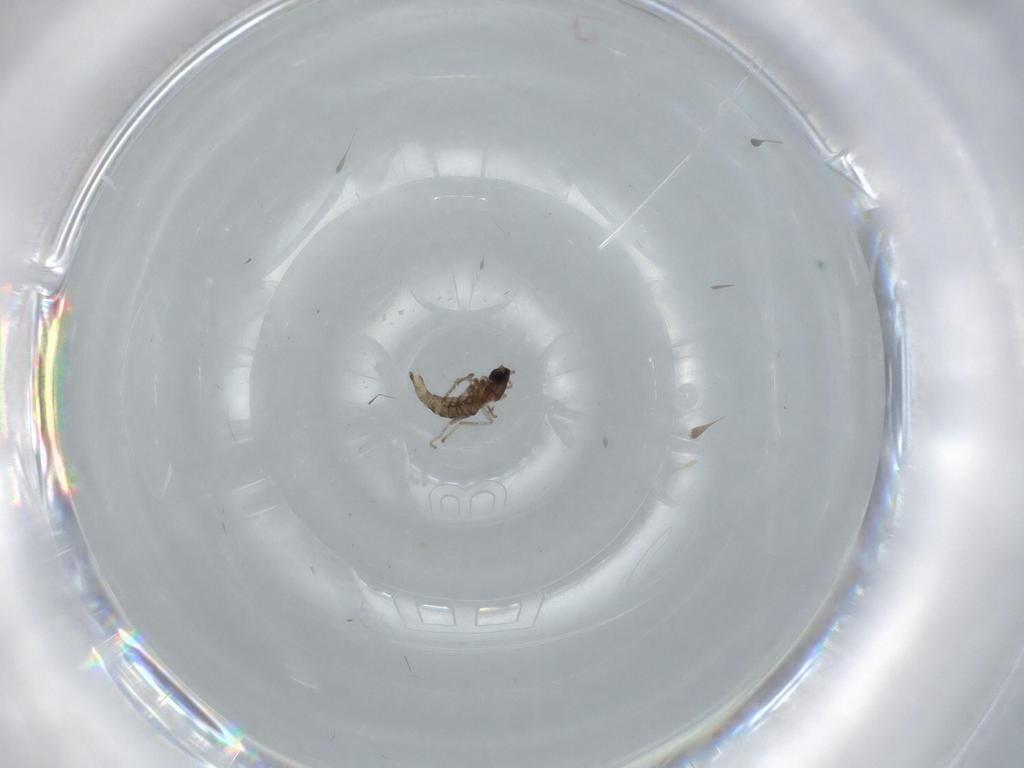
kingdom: Animalia
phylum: Arthropoda
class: Insecta
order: Diptera
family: Cecidomyiidae
